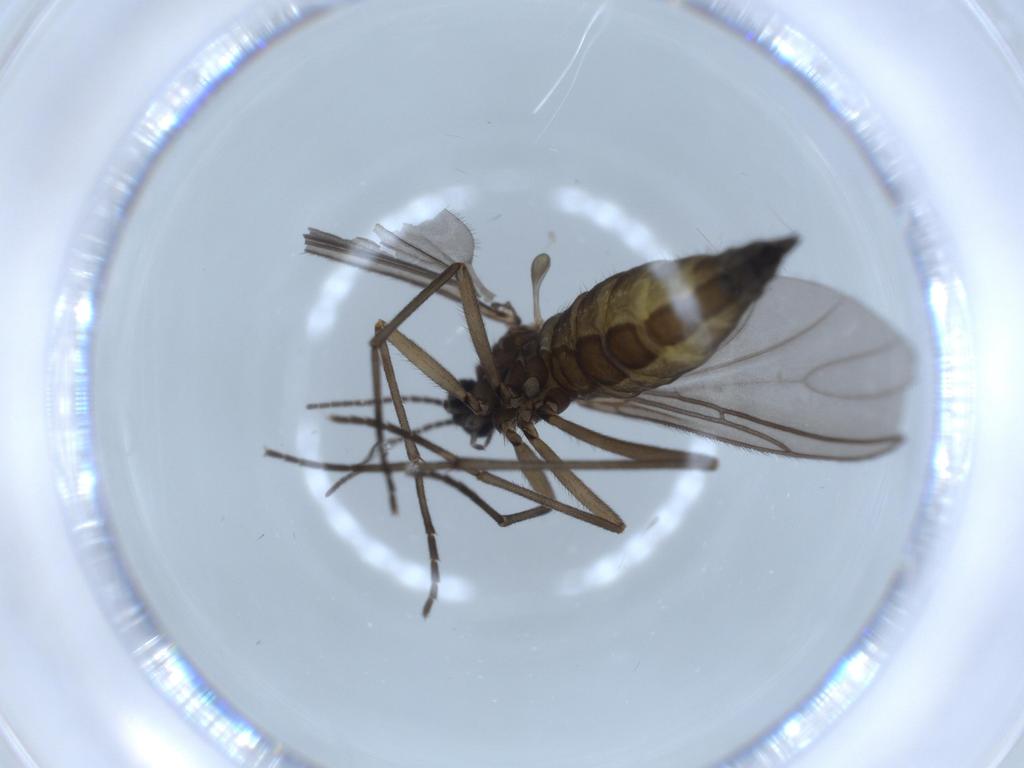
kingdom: Animalia
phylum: Arthropoda
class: Insecta
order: Diptera
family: Sciaridae
